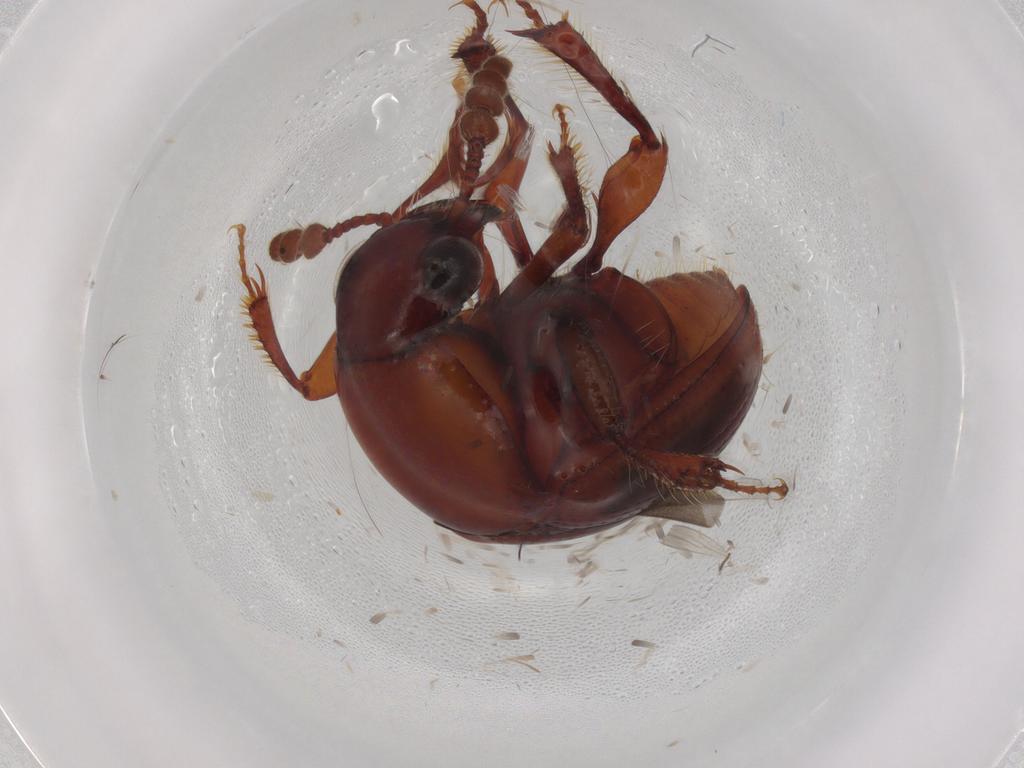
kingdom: Animalia
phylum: Arthropoda
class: Insecta
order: Coleoptera
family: Leiodidae
